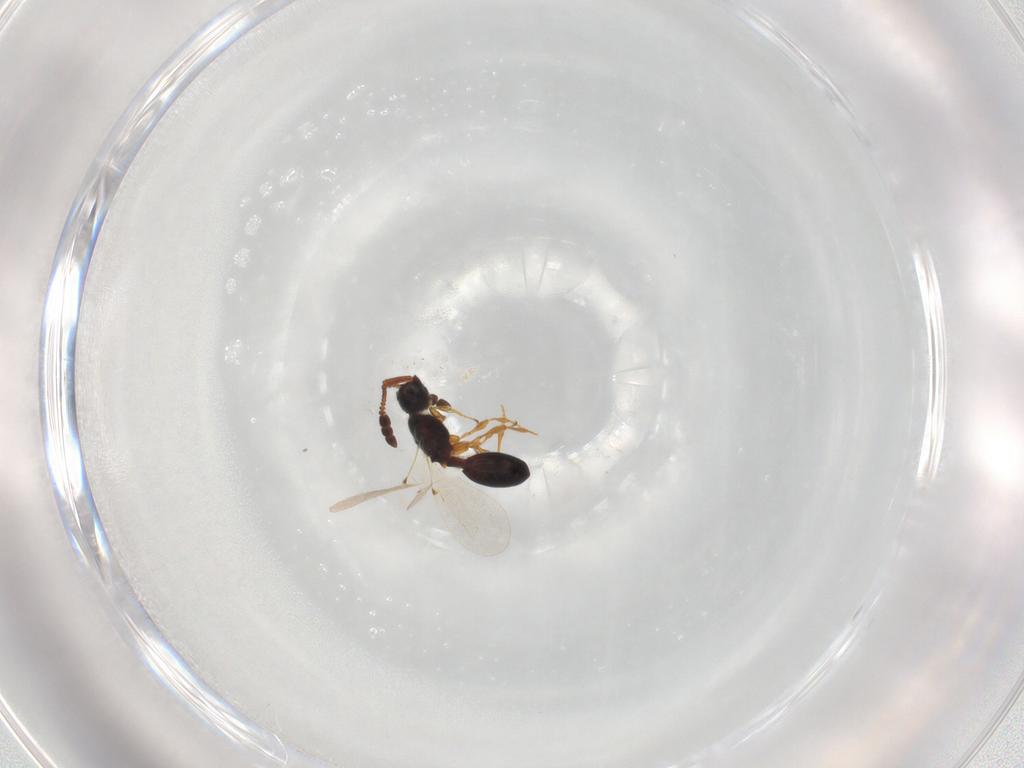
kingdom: Animalia
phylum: Arthropoda
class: Insecta
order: Hymenoptera
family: Diapriidae
